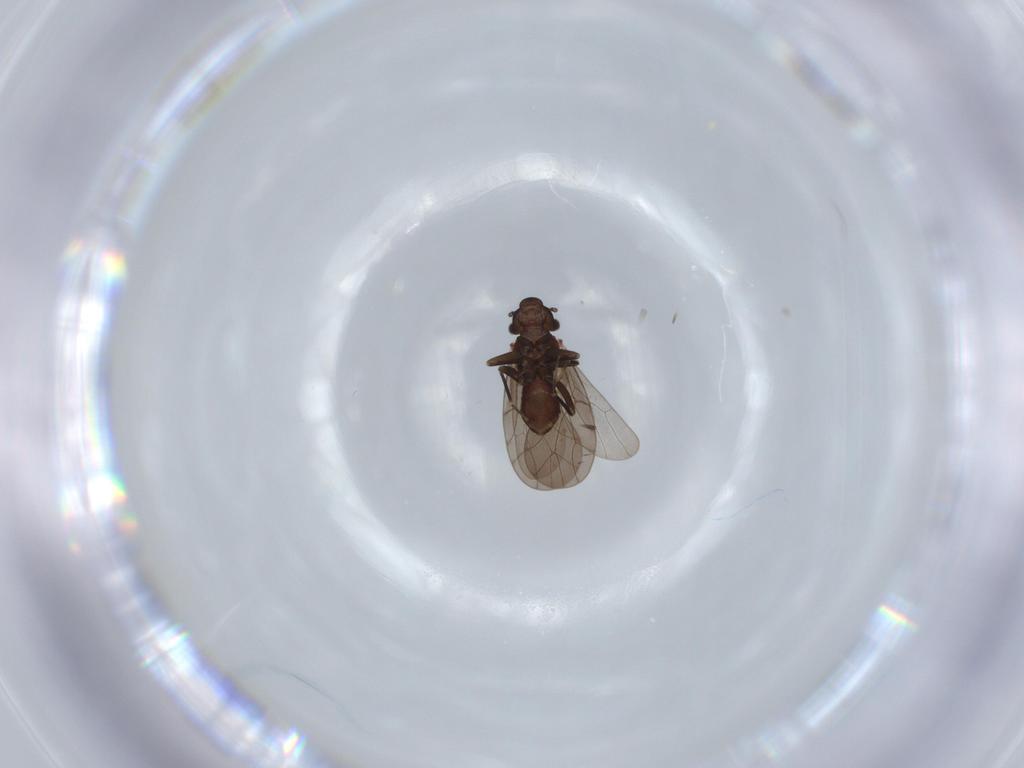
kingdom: Animalia
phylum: Arthropoda
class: Insecta
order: Psocodea
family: Lepidopsocidae
